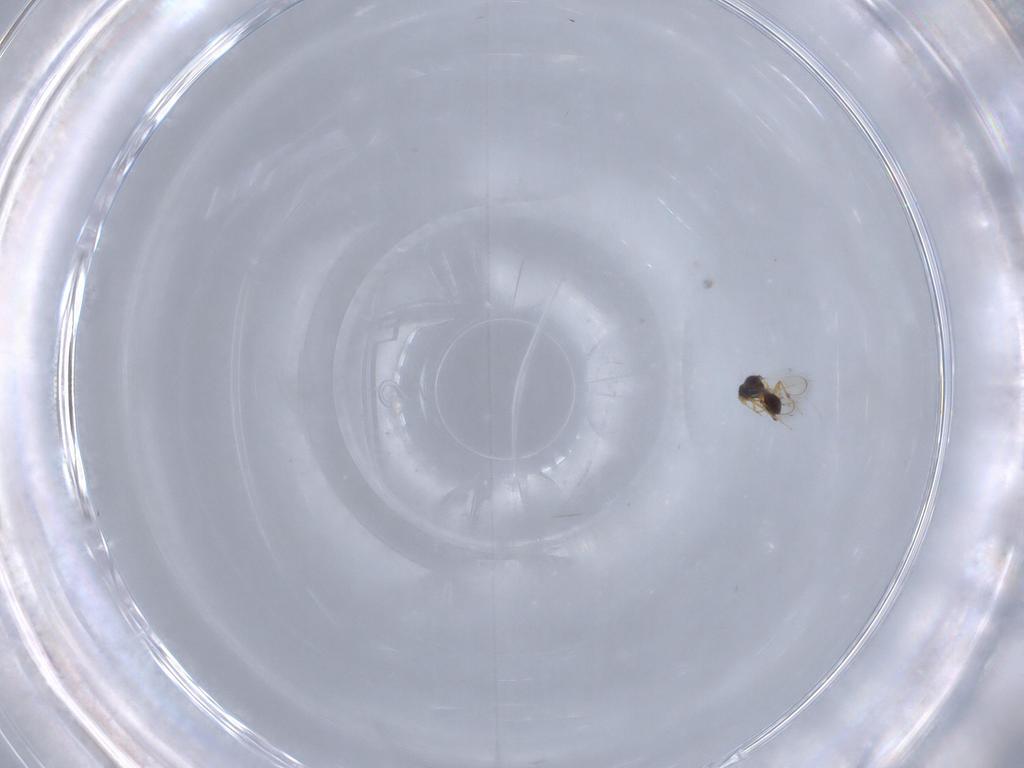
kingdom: Animalia
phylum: Arthropoda
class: Insecta
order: Hymenoptera
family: Platygastridae
